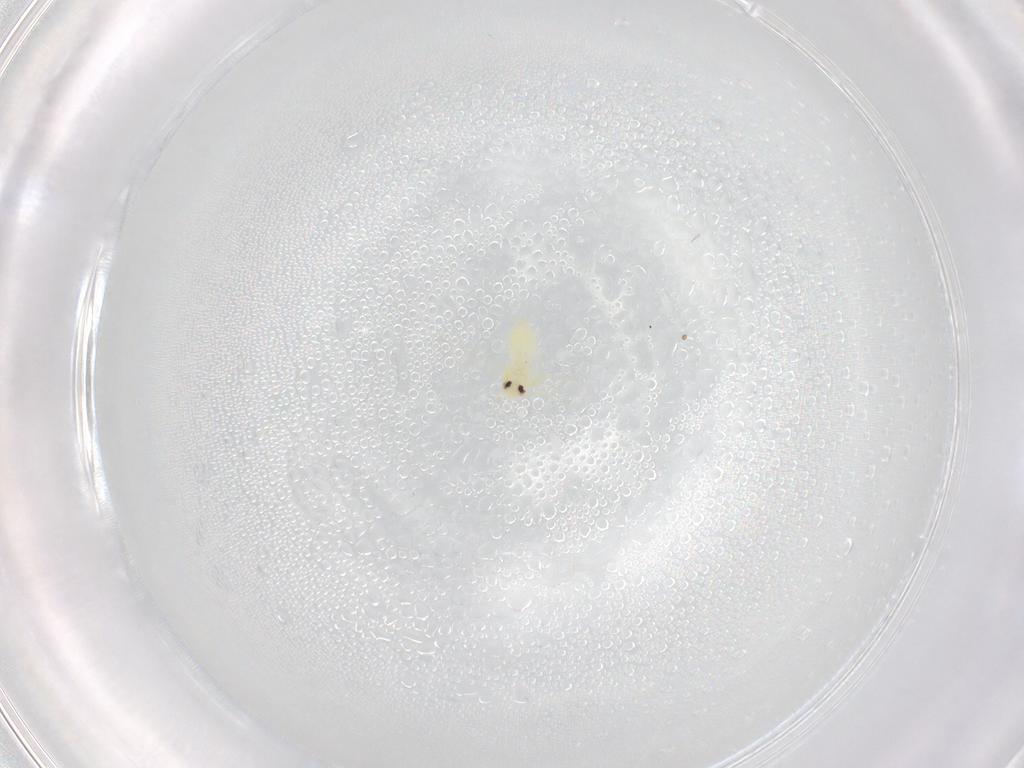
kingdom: Animalia
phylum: Arthropoda
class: Insecta
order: Hemiptera
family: Aleyrodidae
